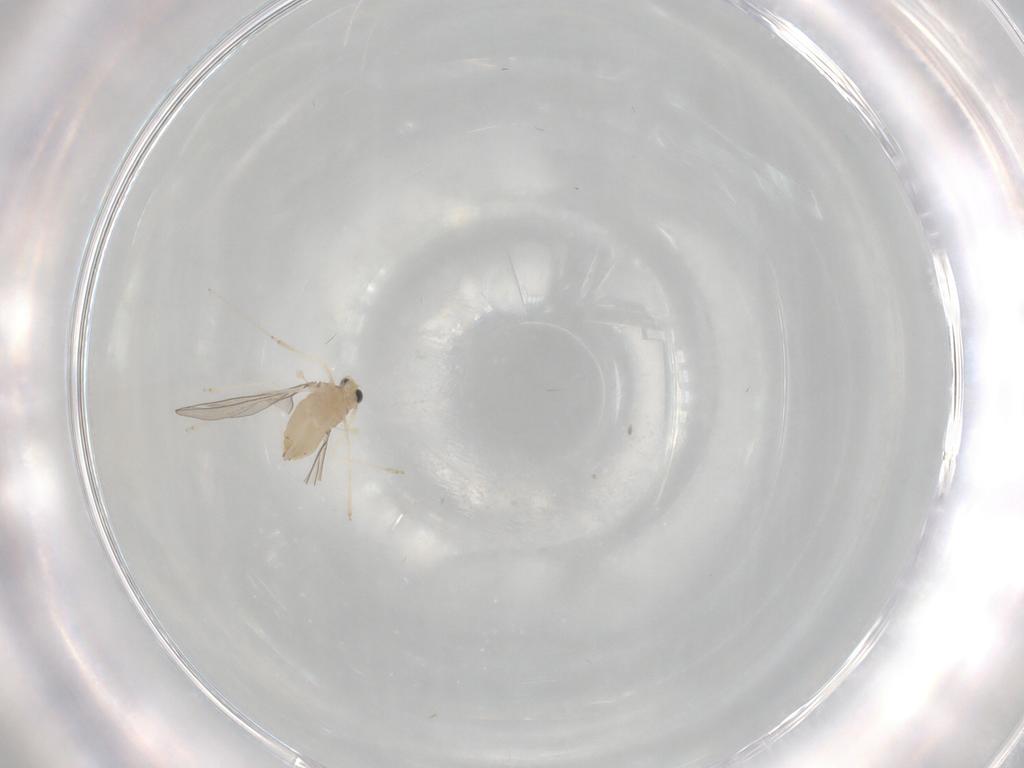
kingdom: Animalia
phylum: Arthropoda
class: Insecta
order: Diptera
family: Cecidomyiidae
